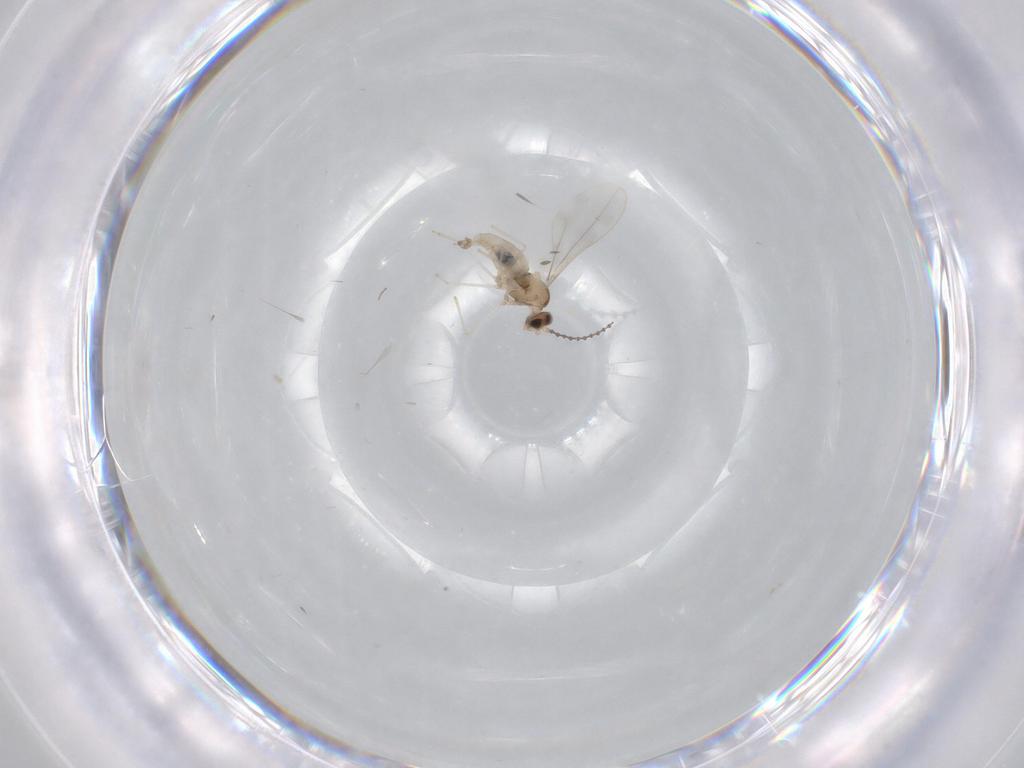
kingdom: Animalia
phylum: Arthropoda
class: Insecta
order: Diptera
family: Cecidomyiidae
